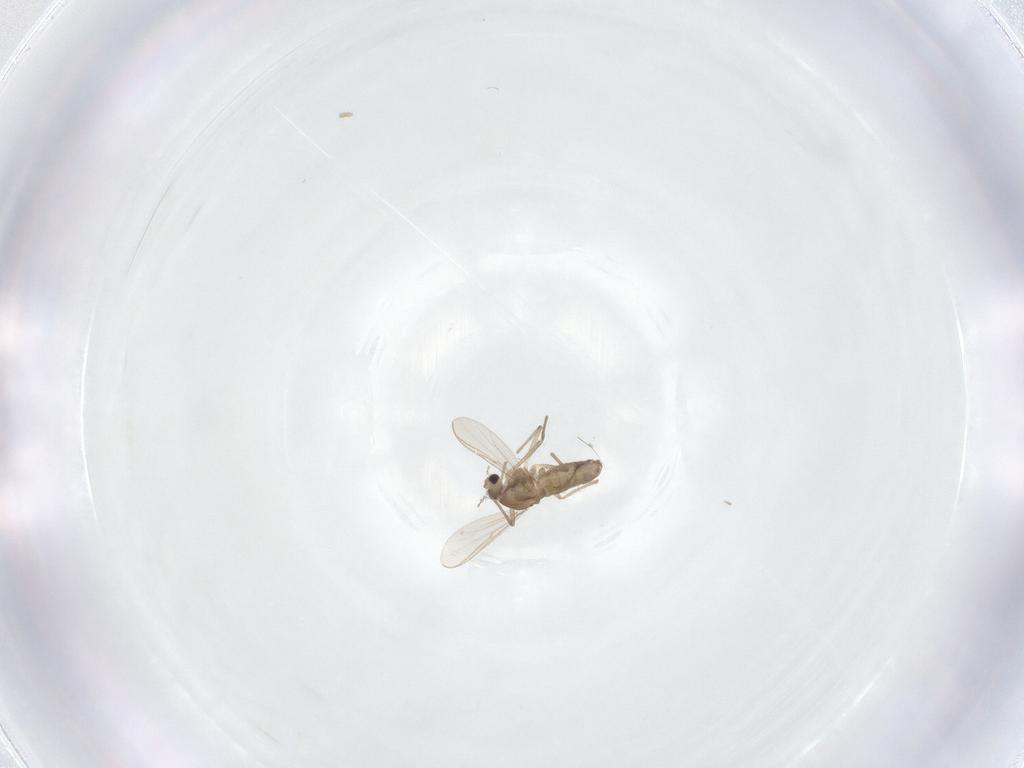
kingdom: Animalia
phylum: Arthropoda
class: Insecta
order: Diptera
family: Chironomidae
